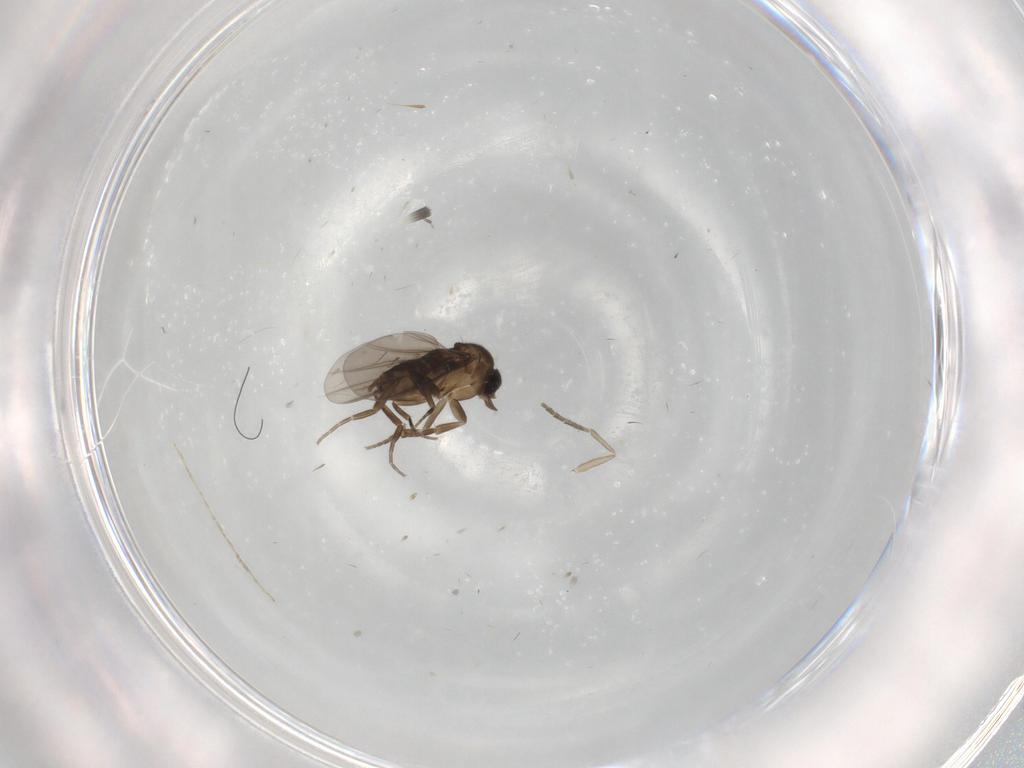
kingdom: Animalia
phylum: Arthropoda
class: Insecta
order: Diptera
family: Phoridae
